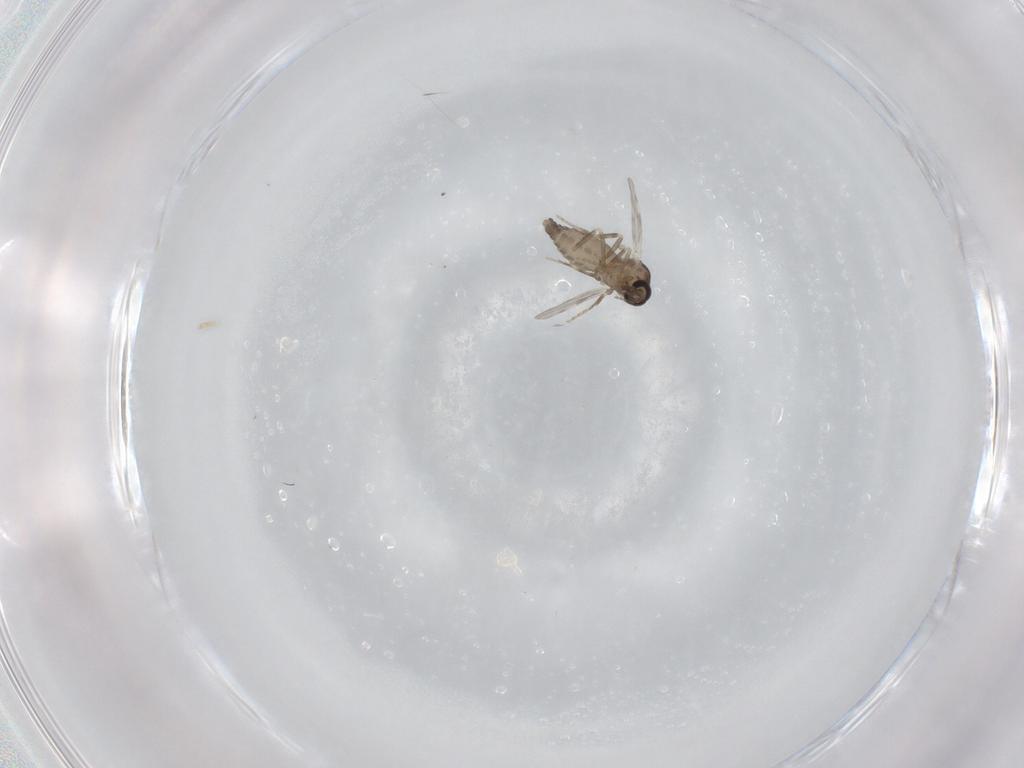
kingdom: Animalia
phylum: Arthropoda
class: Insecta
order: Diptera
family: Ceratopogonidae
